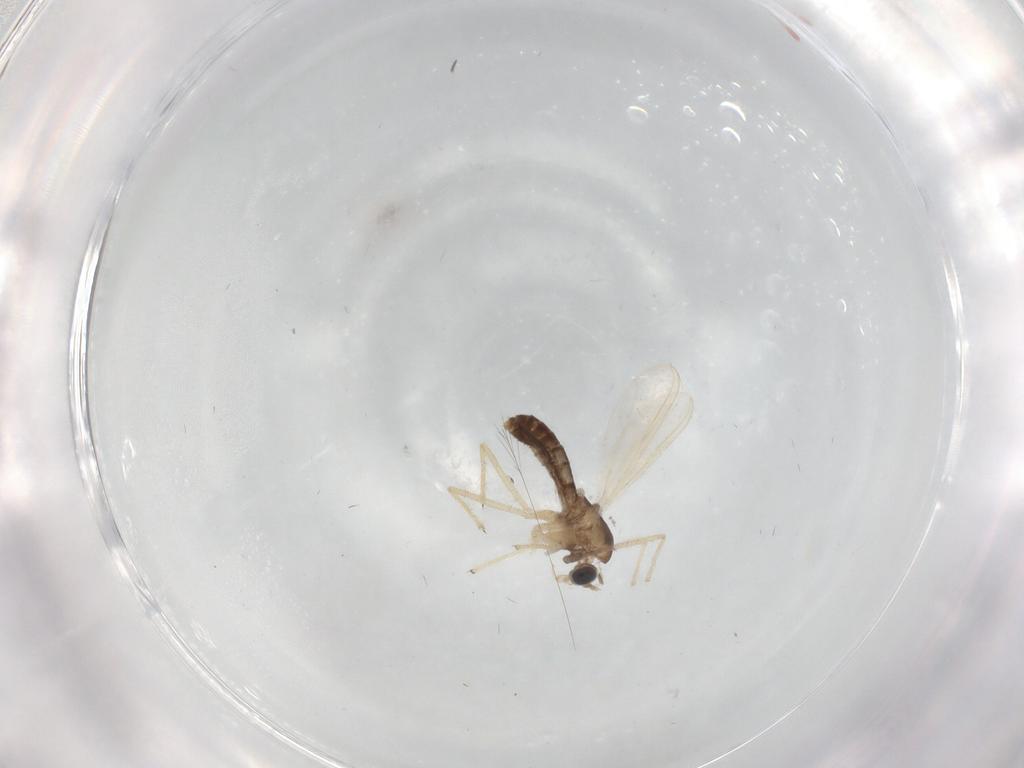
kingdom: Animalia
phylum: Arthropoda
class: Insecta
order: Diptera
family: Chironomidae
